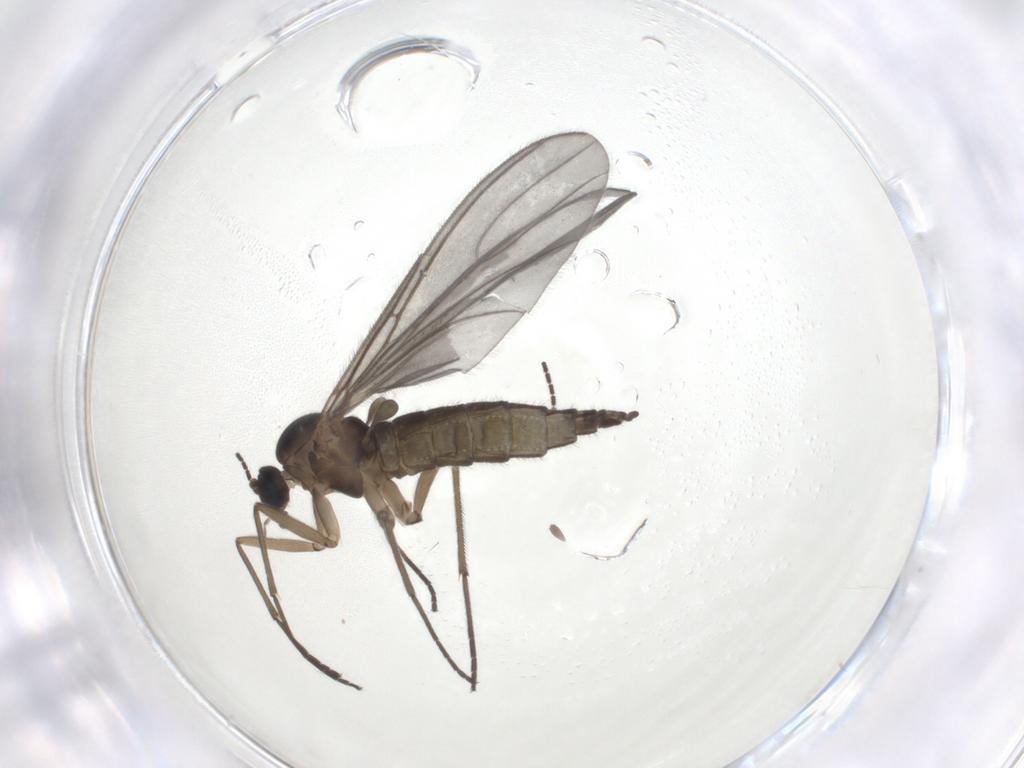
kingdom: Animalia
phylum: Arthropoda
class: Insecta
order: Diptera
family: Sciaridae
